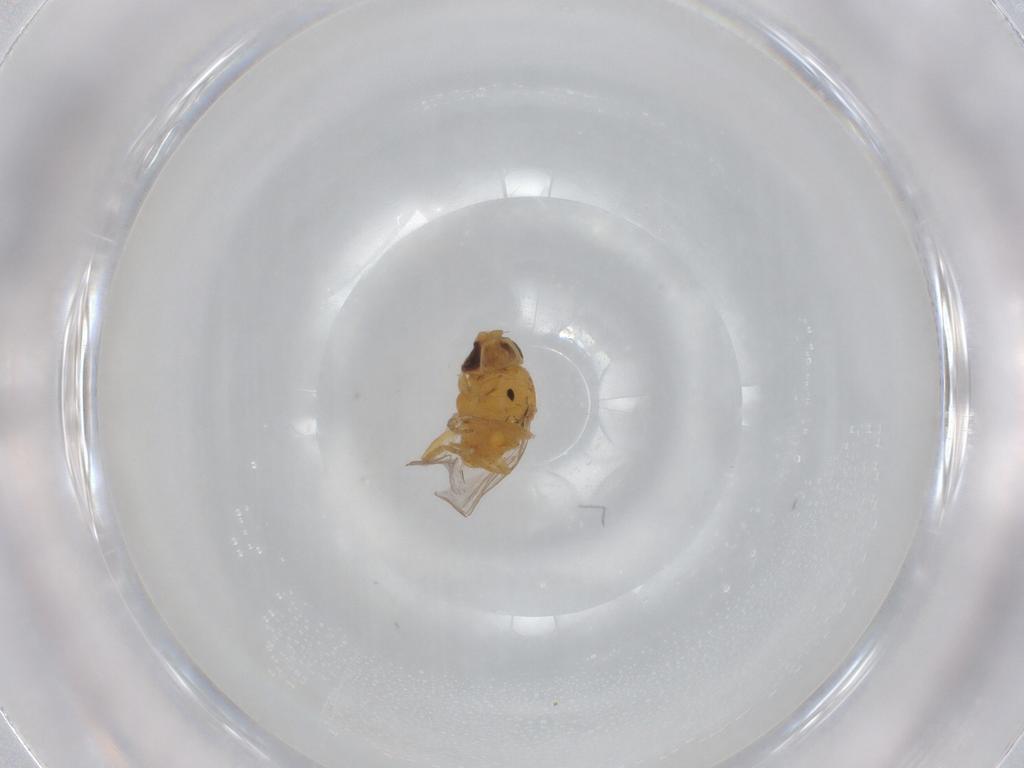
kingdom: Animalia
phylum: Arthropoda
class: Insecta
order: Diptera
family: Chloropidae
